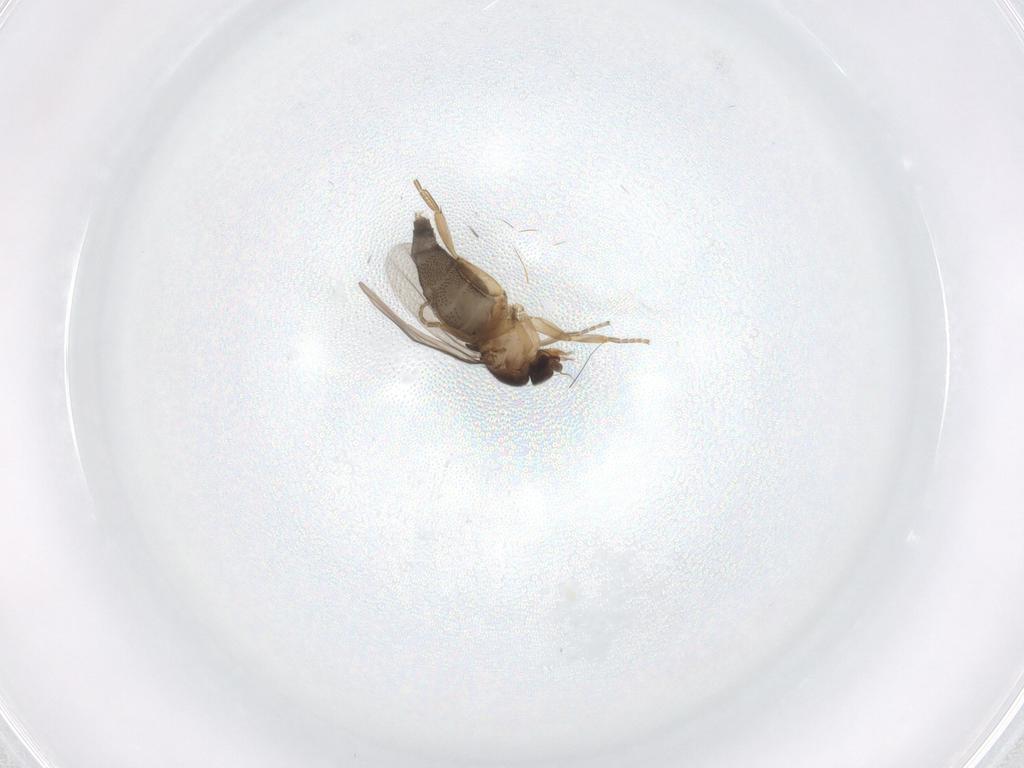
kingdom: Animalia
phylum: Arthropoda
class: Insecta
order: Diptera
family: Phoridae
